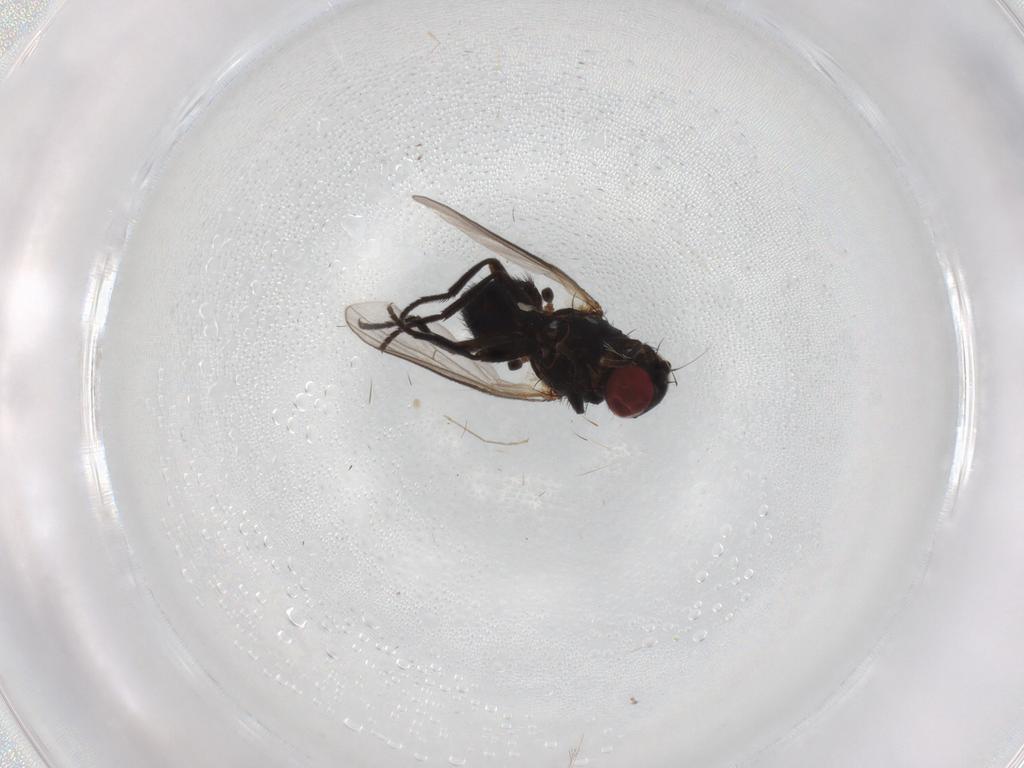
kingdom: Animalia
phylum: Arthropoda
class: Insecta
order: Diptera
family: Agromyzidae
